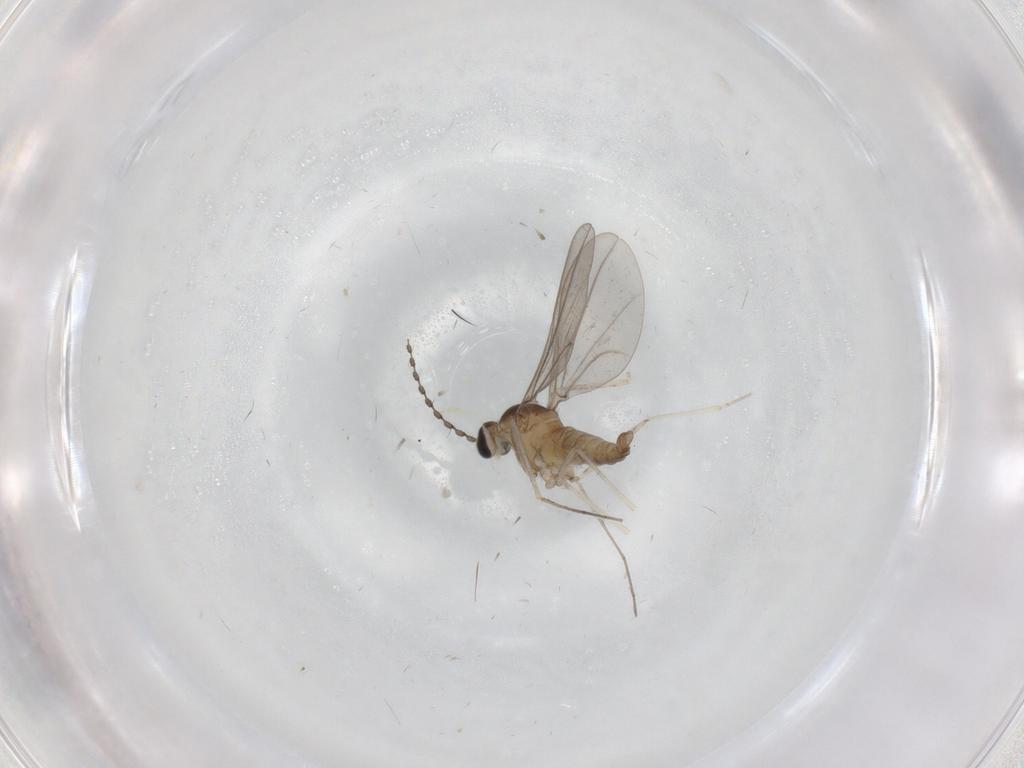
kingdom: Animalia
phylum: Arthropoda
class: Insecta
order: Diptera
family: Cecidomyiidae
